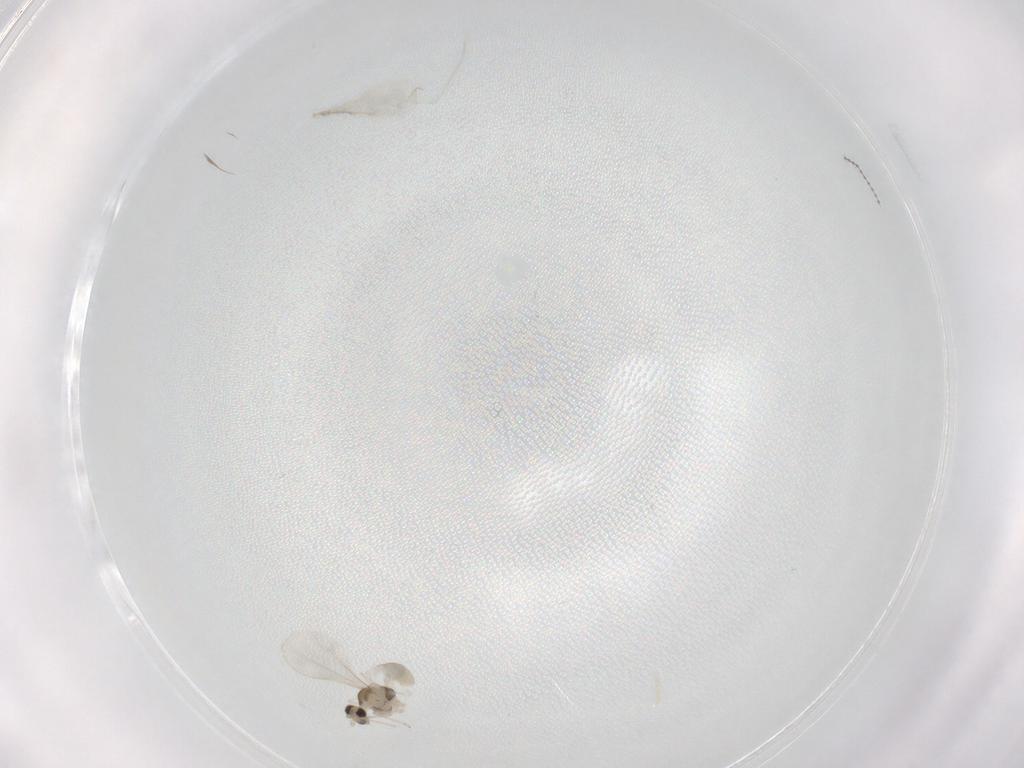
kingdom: Animalia
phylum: Arthropoda
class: Insecta
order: Diptera
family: Cecidomyiidae
